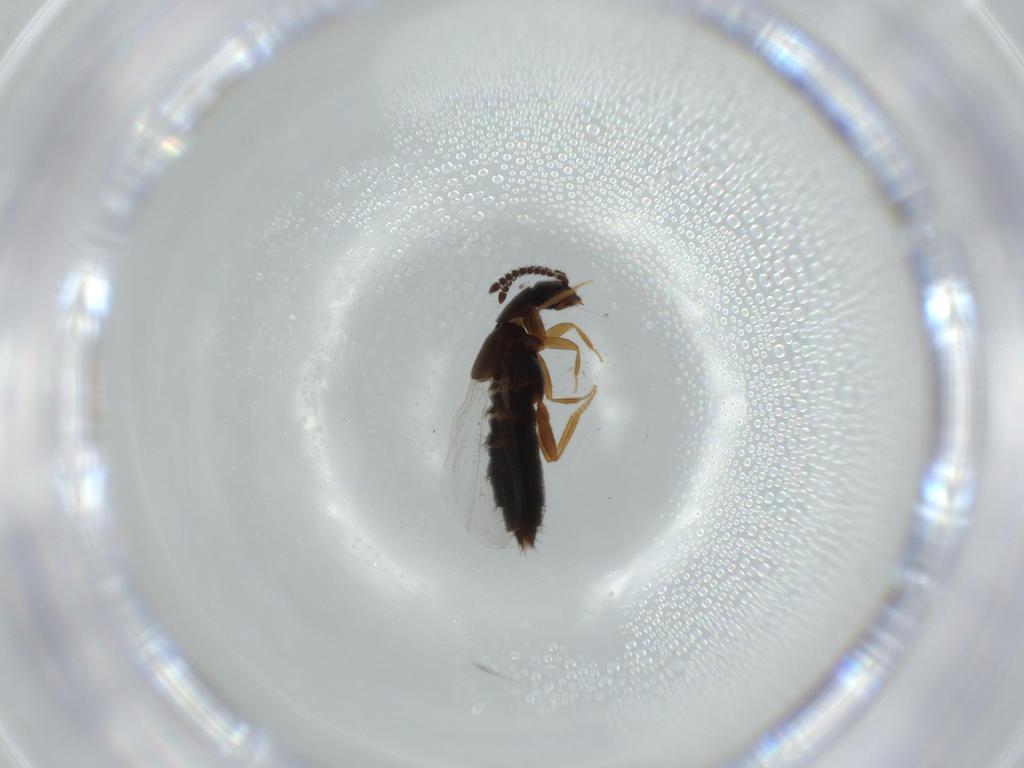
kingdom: Animalia
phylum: Arthropoda
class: Insecta
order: Coleoptera
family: Ptilodactylidae
